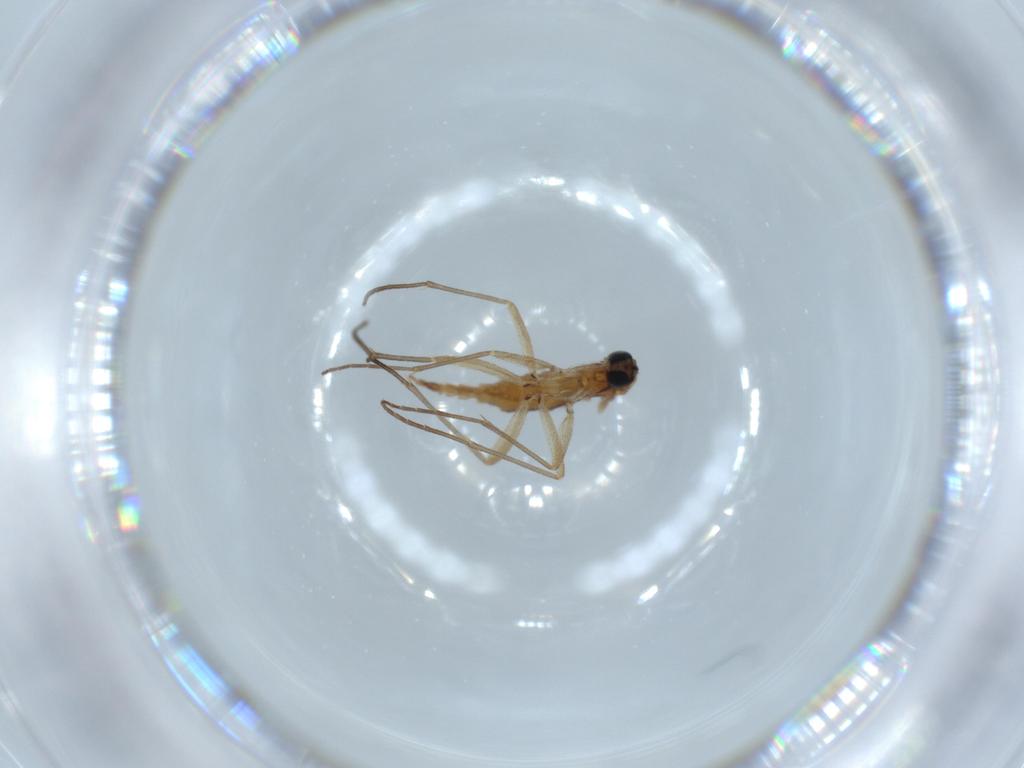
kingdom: Animalia
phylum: Arthropoda
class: Insecta
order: Diptera
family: Sciaridae
